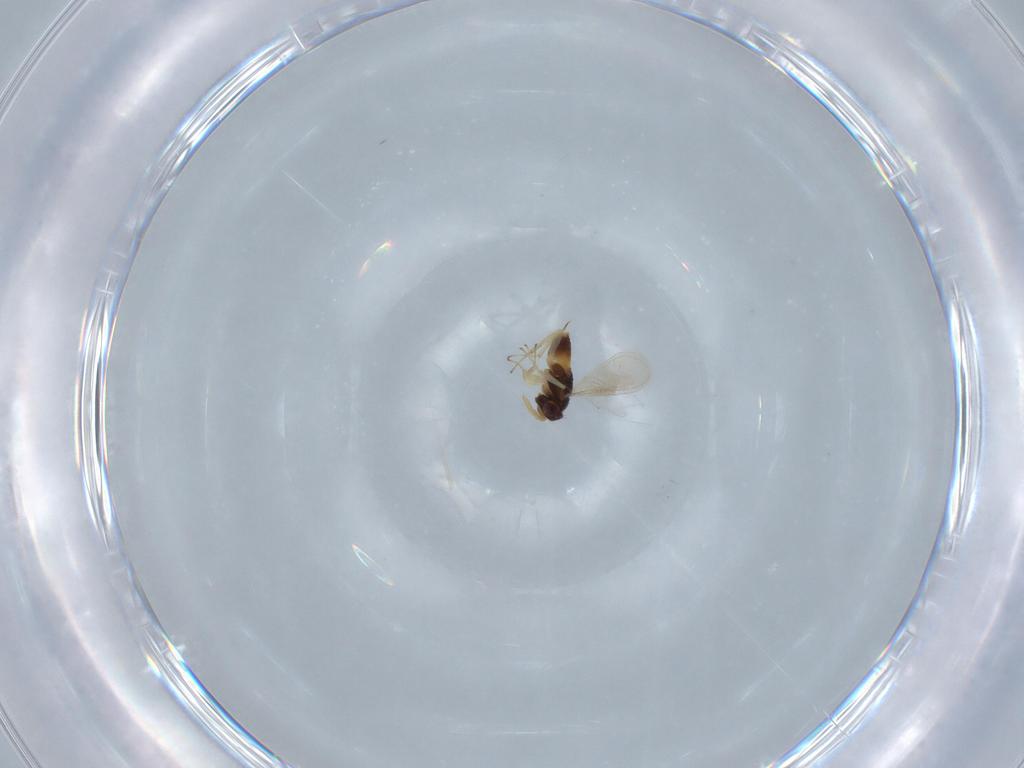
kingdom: Animalia
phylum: Arthropoda
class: Insecta
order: Hymenoptera
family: Aphelinidae
